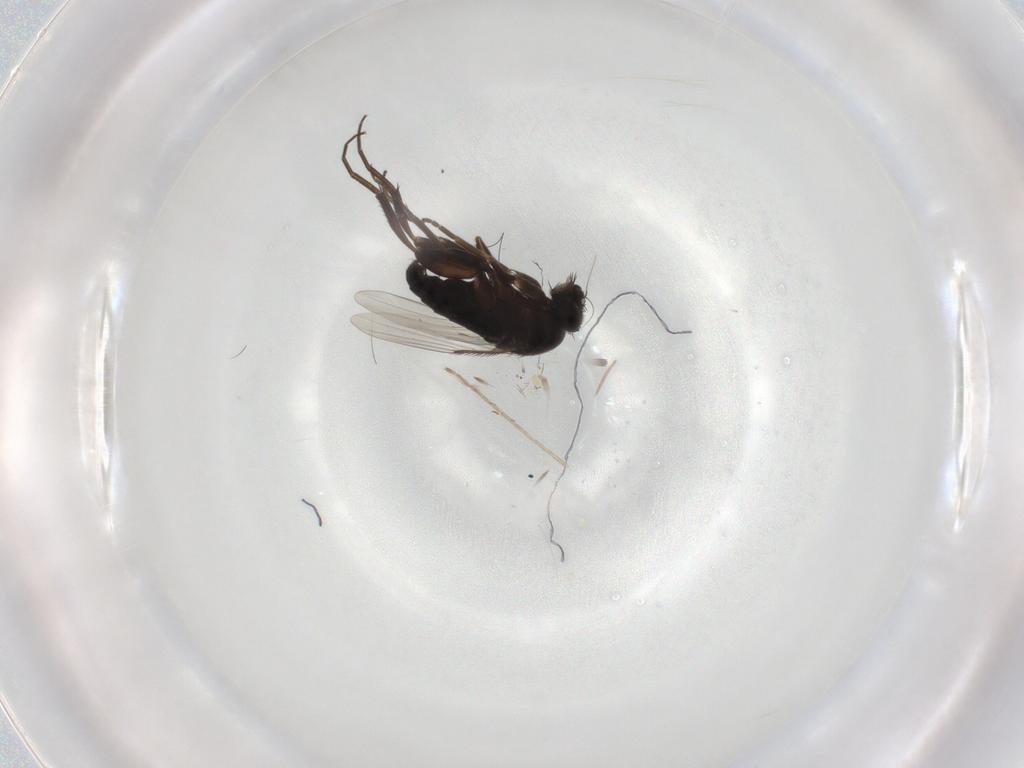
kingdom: Animalia
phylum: Arthropoda
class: Insecta
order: Diptera
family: Phoridae
